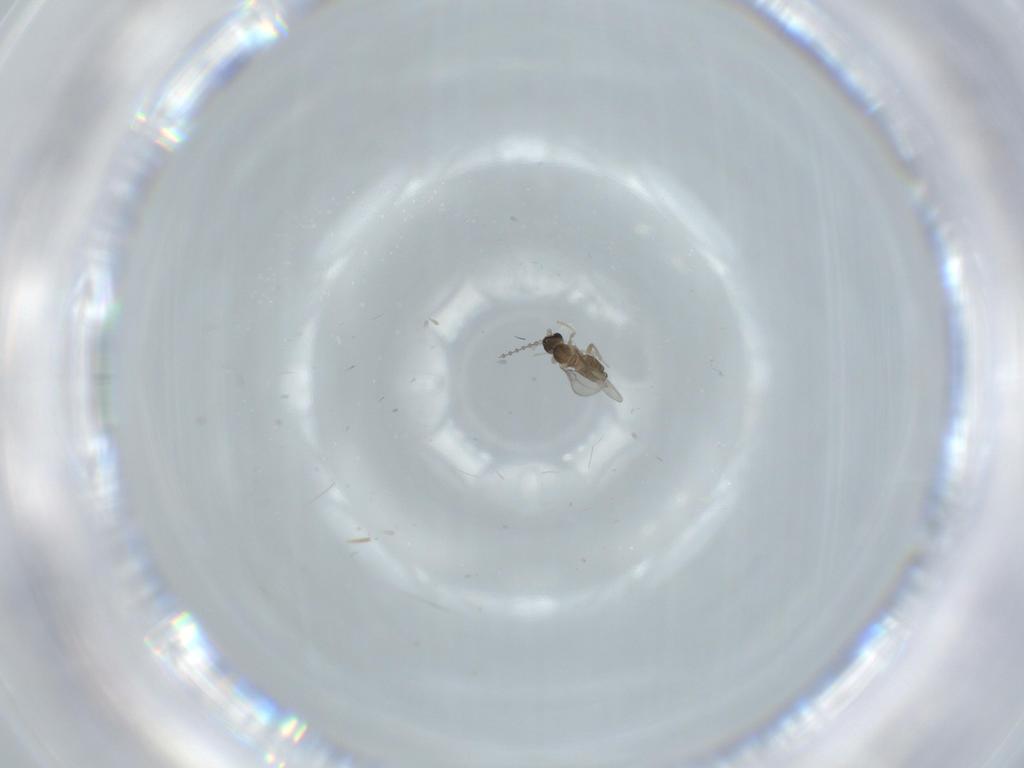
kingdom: Animalia
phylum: Arthropoda
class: Insecta
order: Diptera
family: Cecidomyiidae
